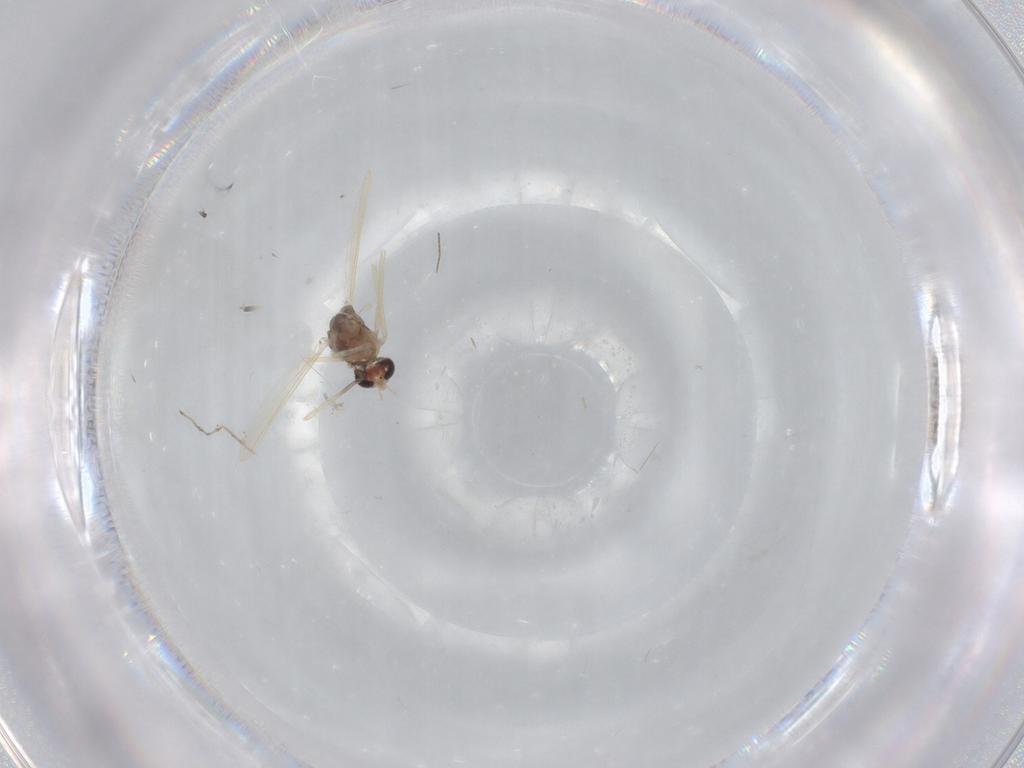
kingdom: Animalia
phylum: Arthropoda
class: Insecta
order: Diptera
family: Chironomidae
